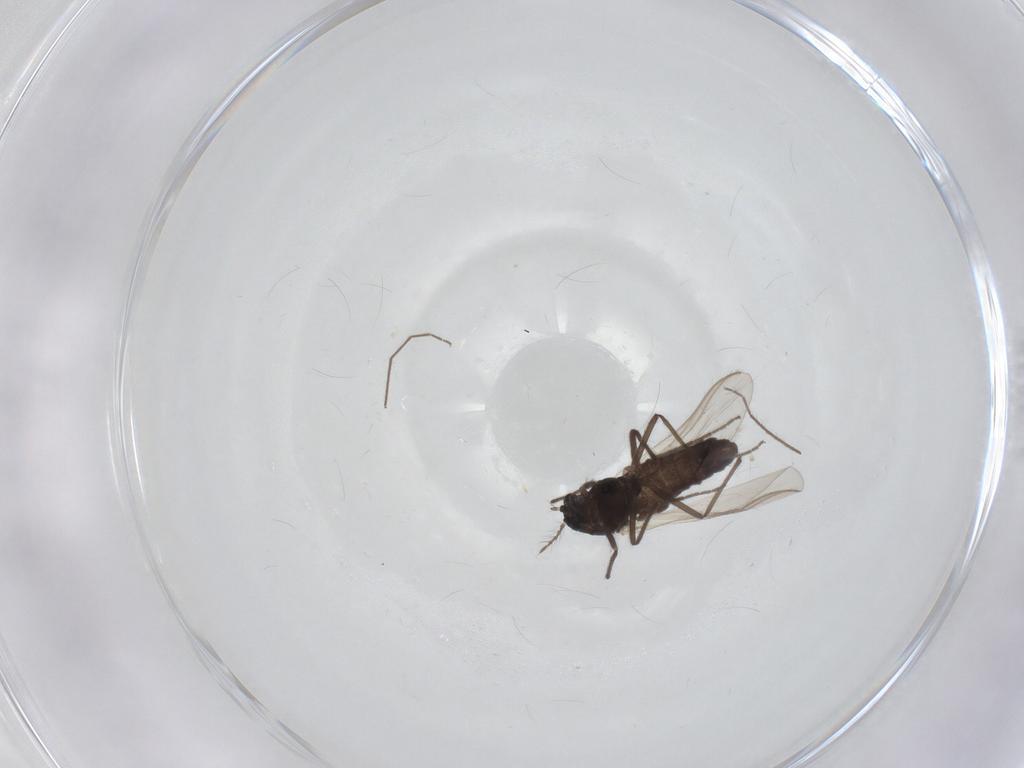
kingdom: Animalia
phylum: Arthropoda
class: Insecta
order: Diptera
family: Chironomidae
